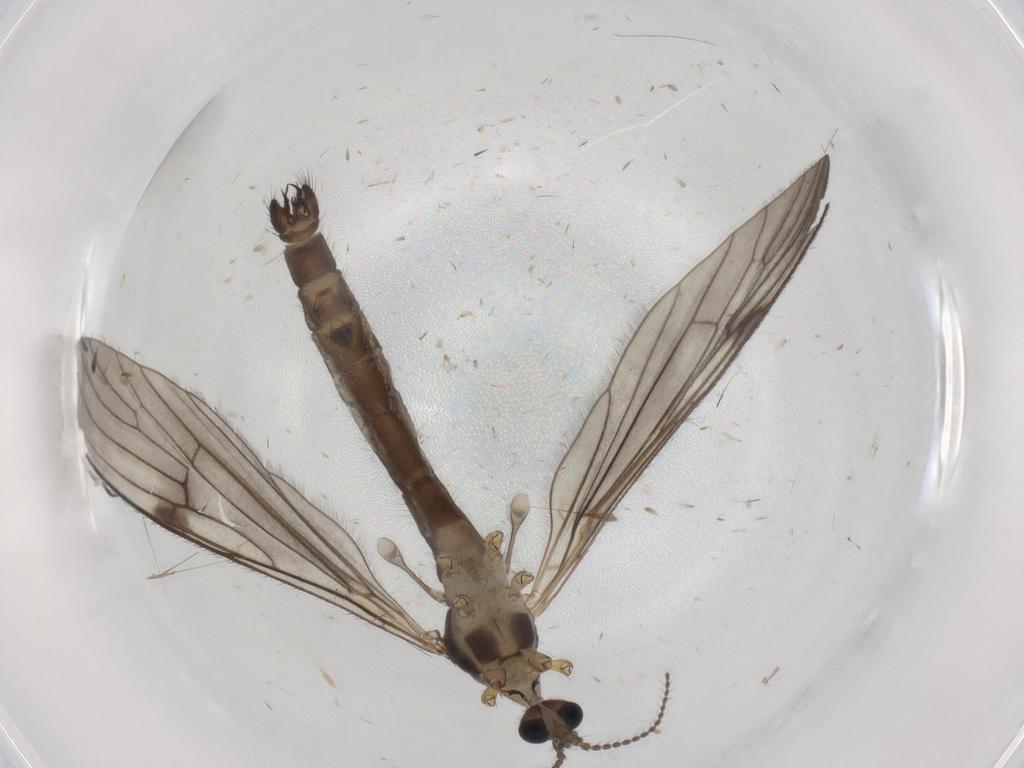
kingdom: Animalia
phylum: Arthropoda
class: Insecta
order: Diptera
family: Limoniidae
